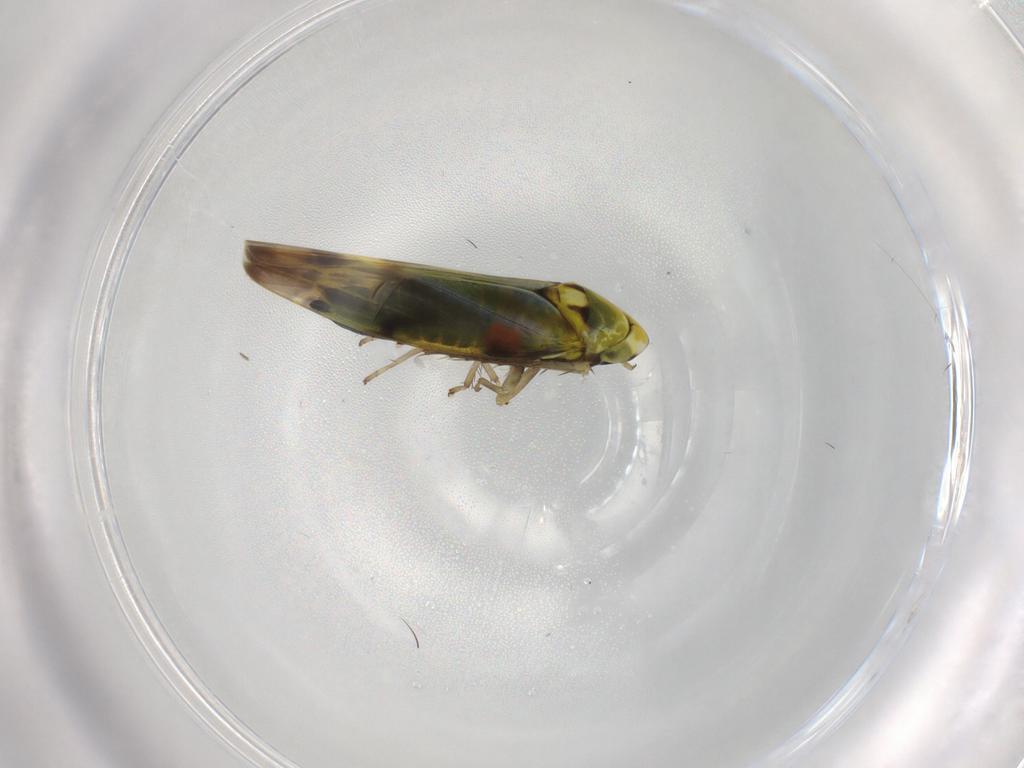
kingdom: Animalia
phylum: Arthropoda
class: Insecta
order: Hemiptera
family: Cicadellidae
